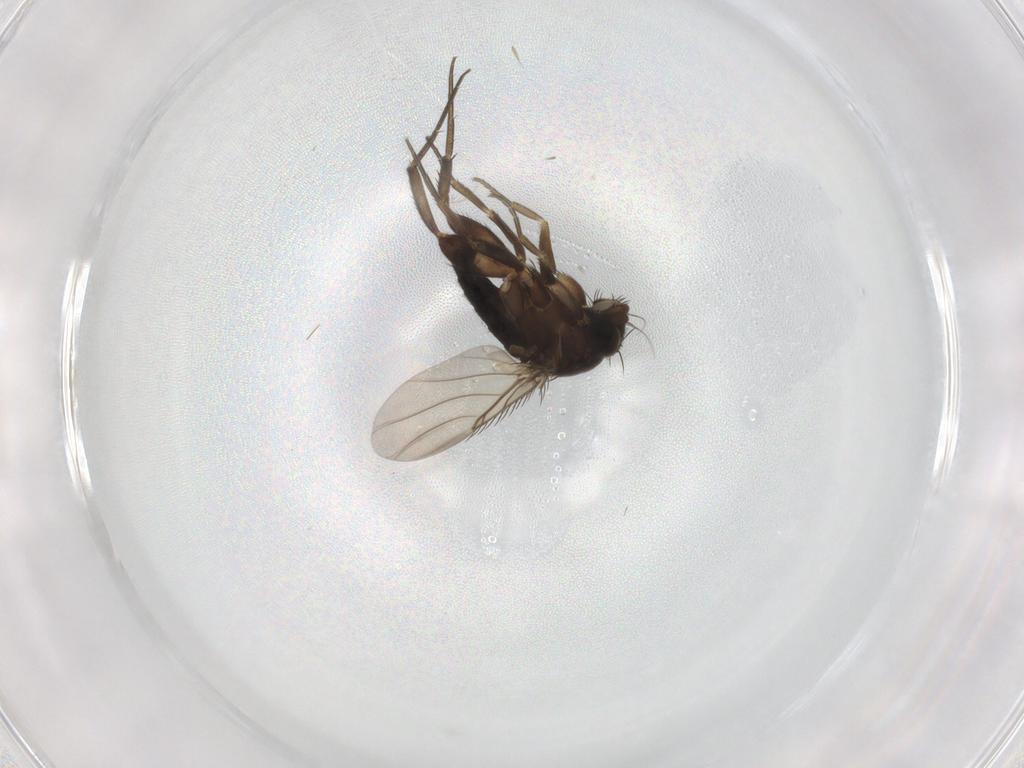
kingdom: Animalia
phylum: Arthropoda
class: Insecta
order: Diptera
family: Phoridae
